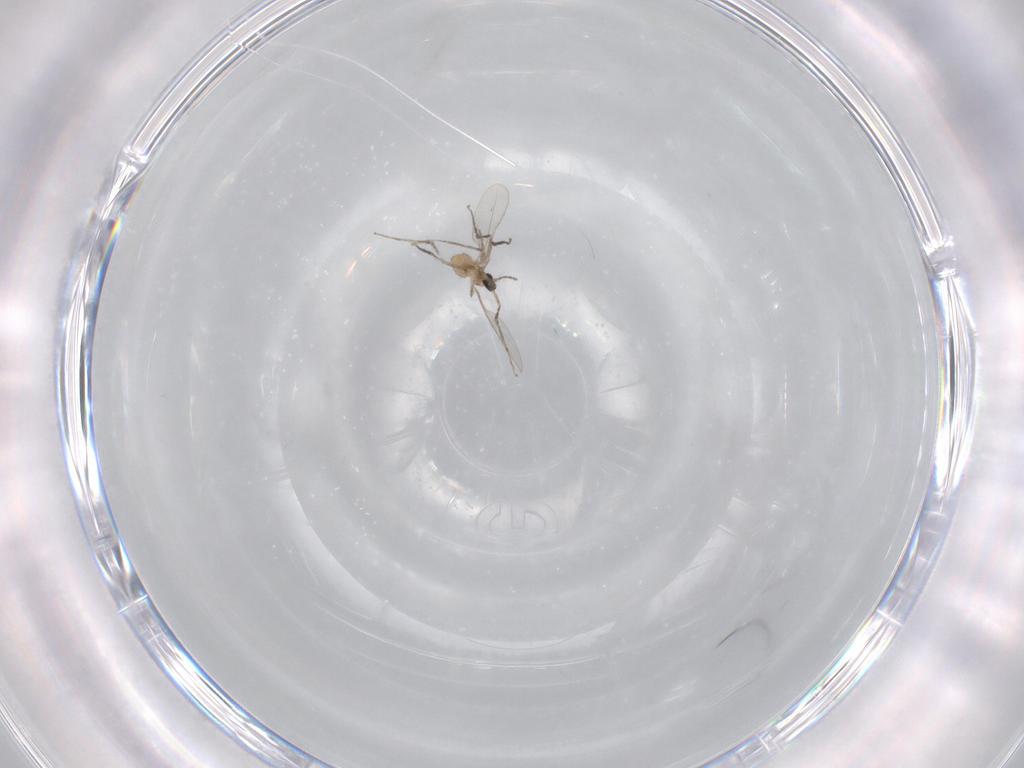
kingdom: Animalia
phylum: Arthropoda
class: Insecta
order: Diptera
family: Cecidomyiidae
